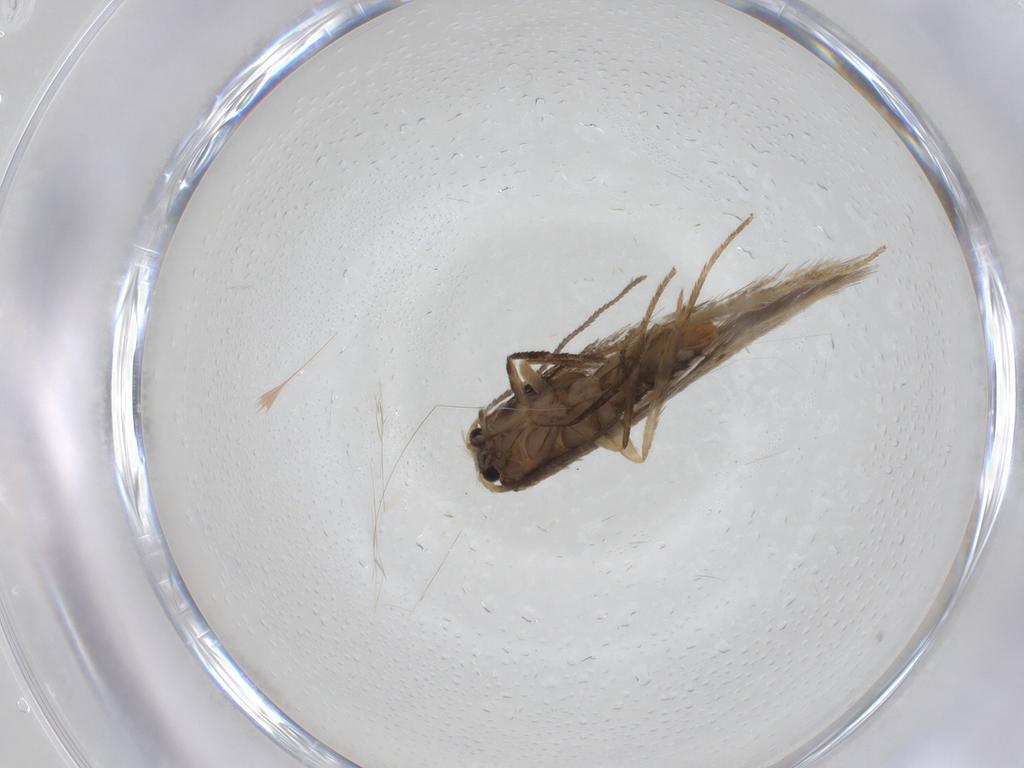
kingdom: Animalia
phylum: Arthropoda
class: Insecta
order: Lepidoptera
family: Nepticulidae
